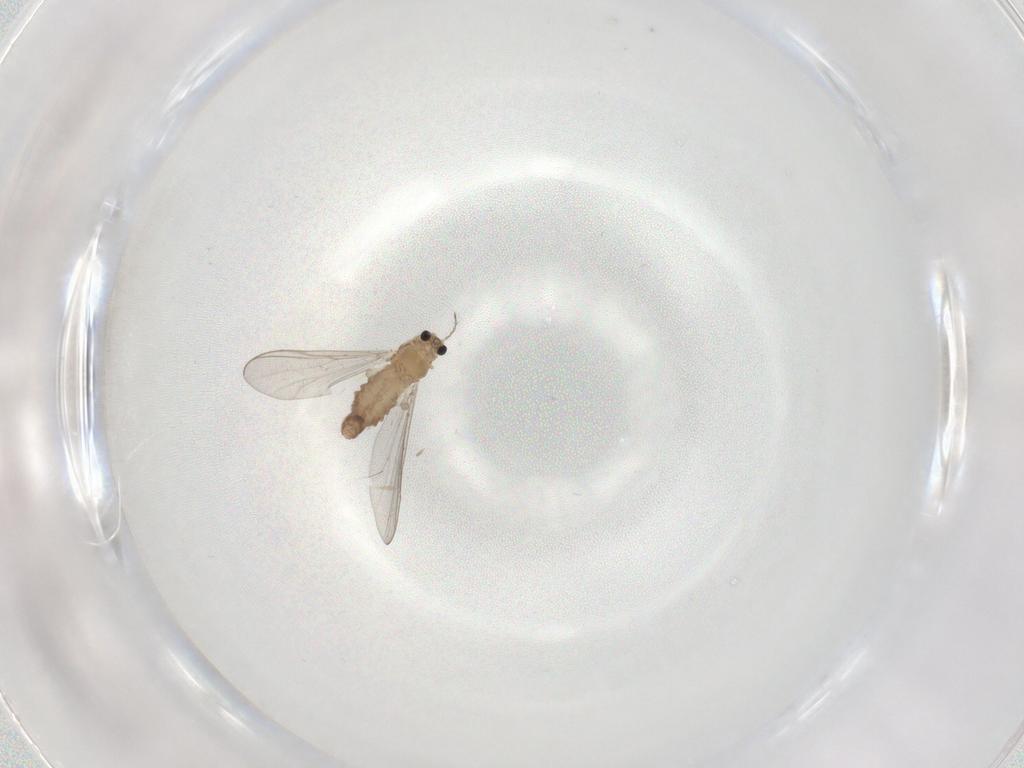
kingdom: Animalia
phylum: Arthropoda
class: Insecta
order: Diptera
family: Chironomidae
